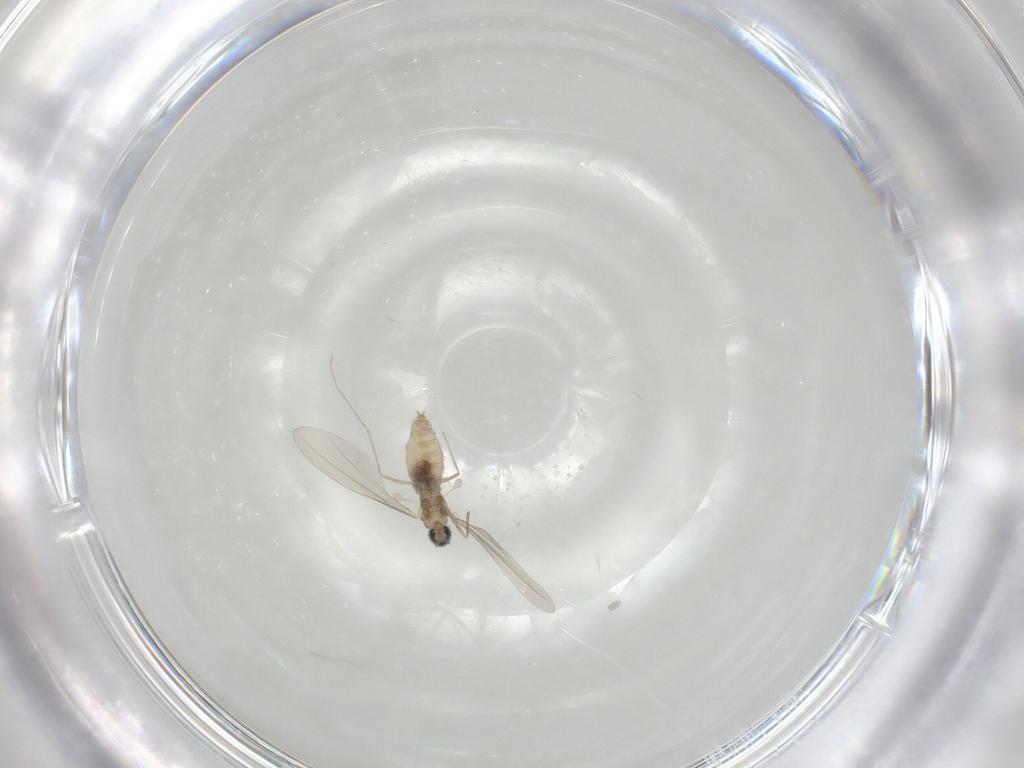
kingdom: Animalia
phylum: Arthropoda
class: Insecta
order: Diptera
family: Cecidomyiidae
